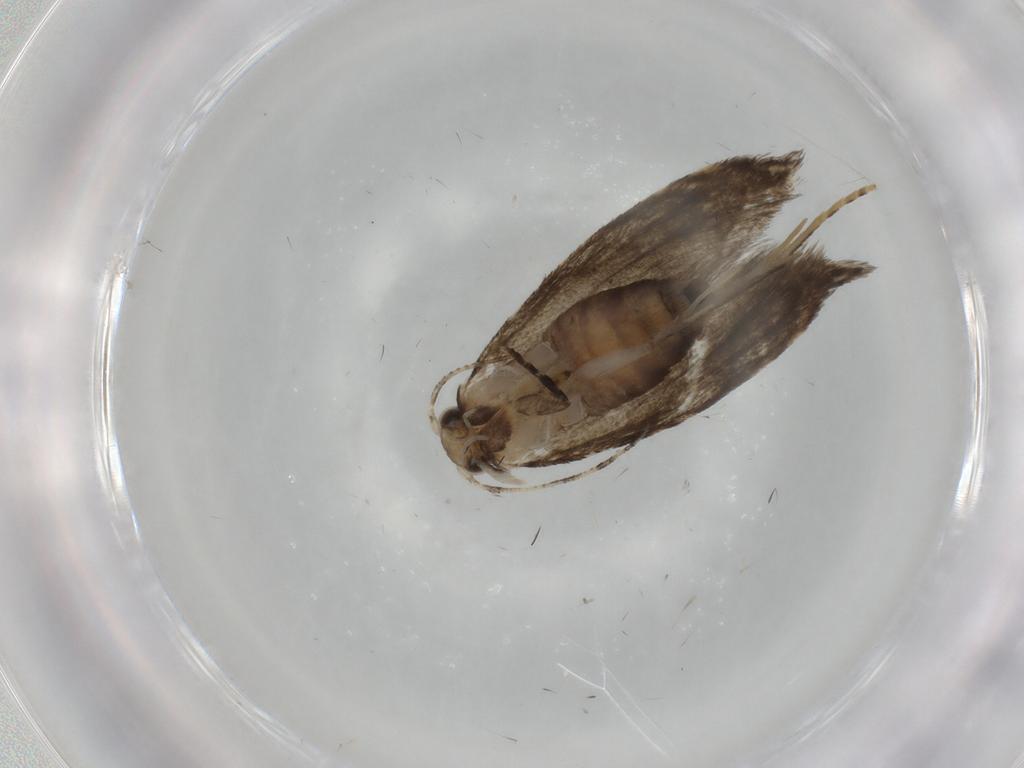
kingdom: Animalia
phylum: Arthropoda
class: Insecta
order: Lepidoptera
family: Tineidae
